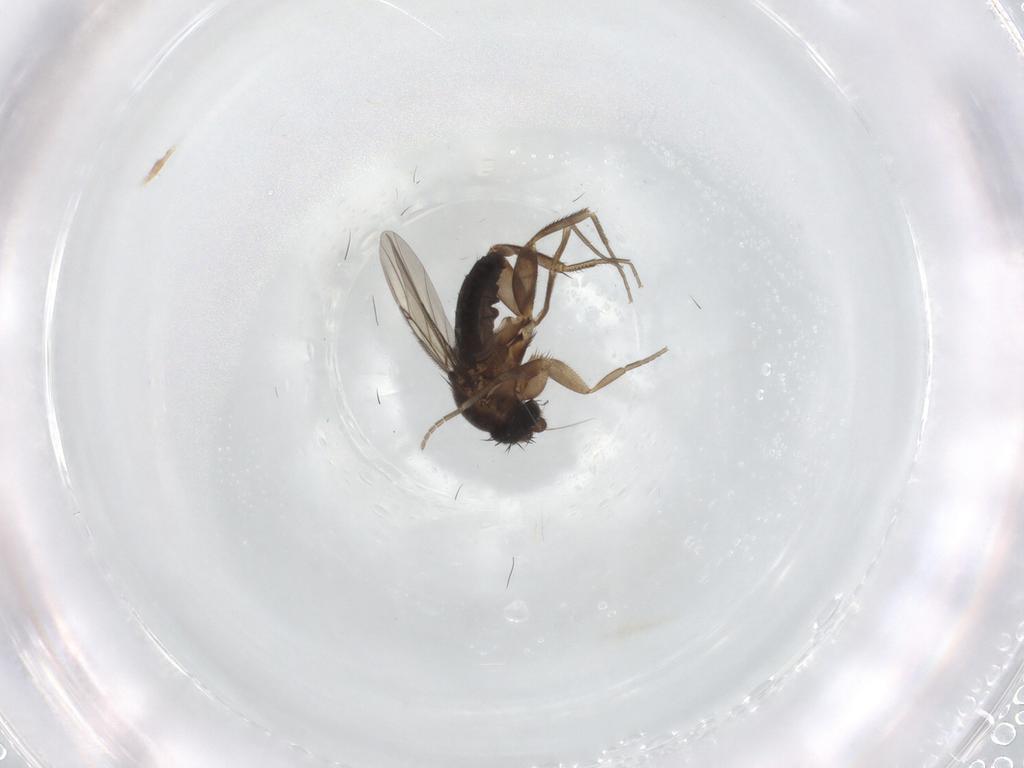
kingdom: Animalia
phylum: Arthropoda
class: Insecta
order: Diptera
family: Phoridae
